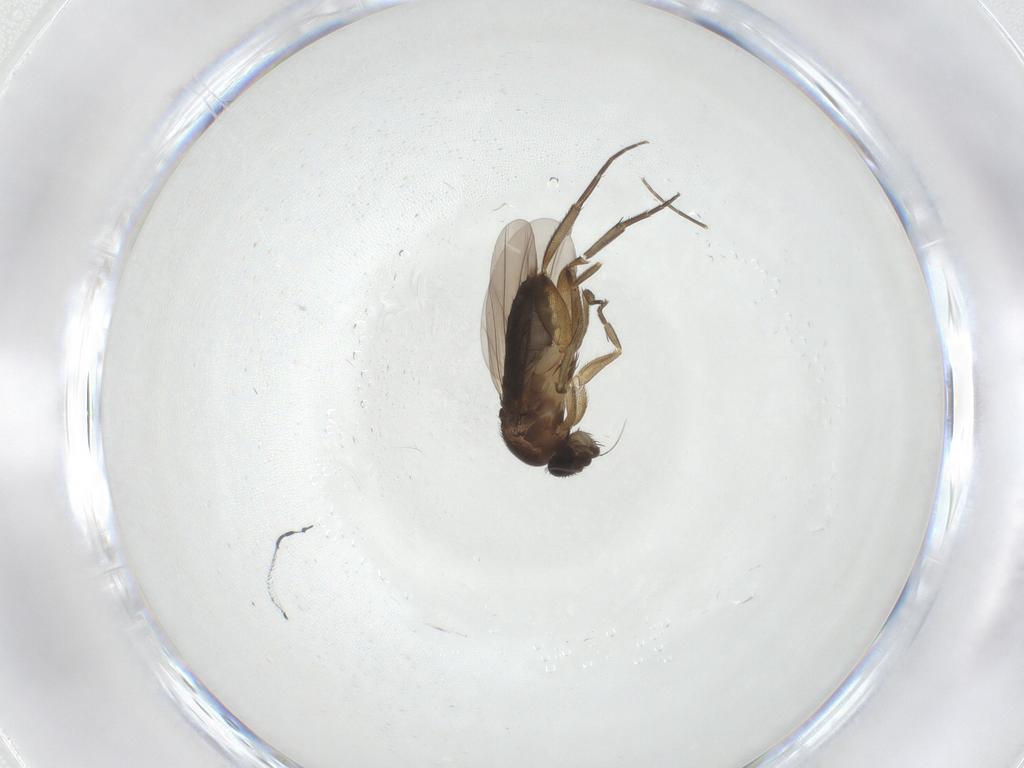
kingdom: Animalia
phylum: Arthropoda
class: Insecta
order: Diptera
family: Phoridae
